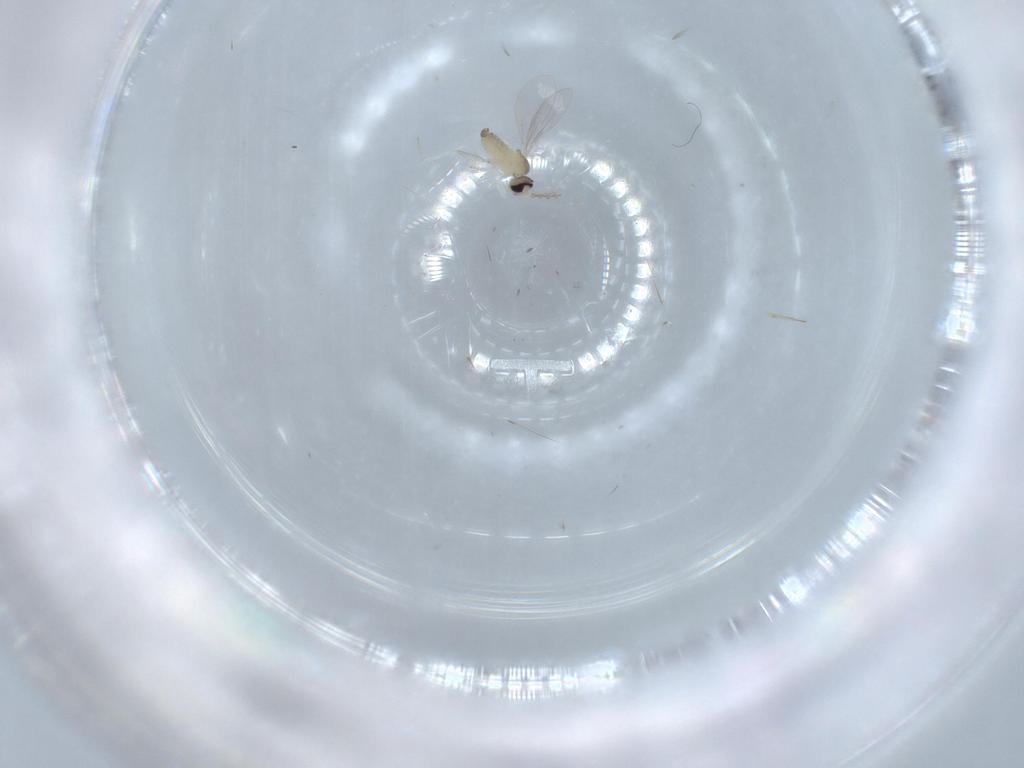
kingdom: Animalia
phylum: Arthropoda
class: Insecta
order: Diptera
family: Cecidomyiidae
